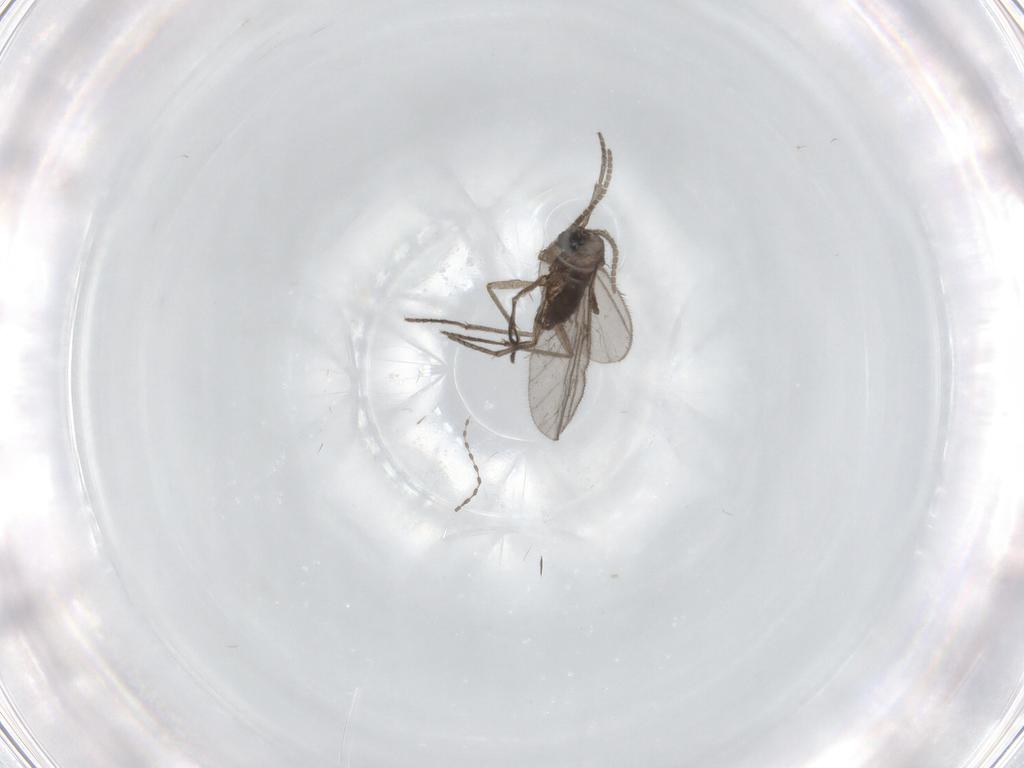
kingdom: Animalia
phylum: Arthropoda
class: Insecta
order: Diptera
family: Sciaridae
